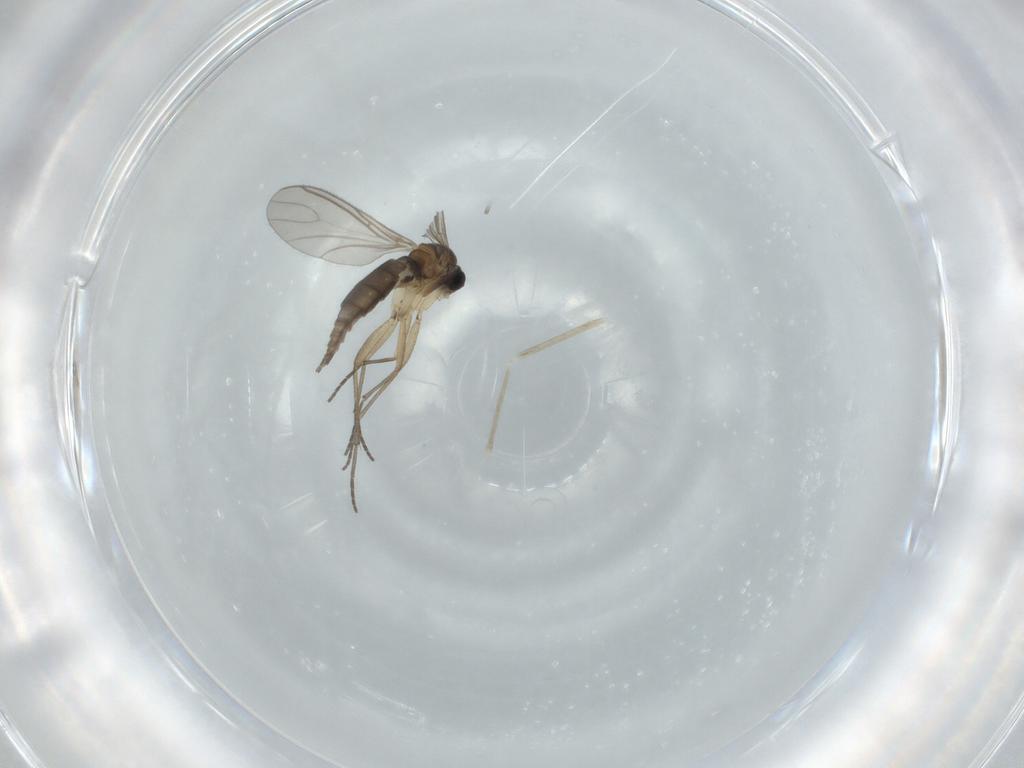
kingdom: Animalia
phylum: Arthropoda
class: Insecta
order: Diptera
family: Sciaridae
